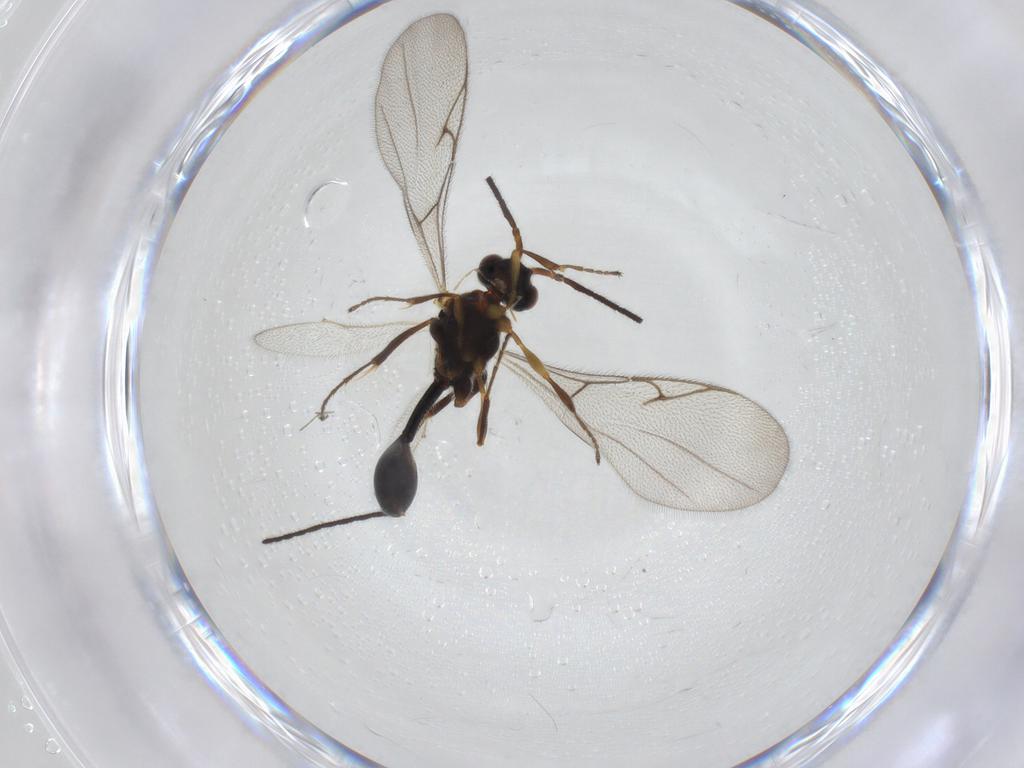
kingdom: Animalia
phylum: Arthropoda
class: Insecta
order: Hymenoptera
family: Diapriidae
